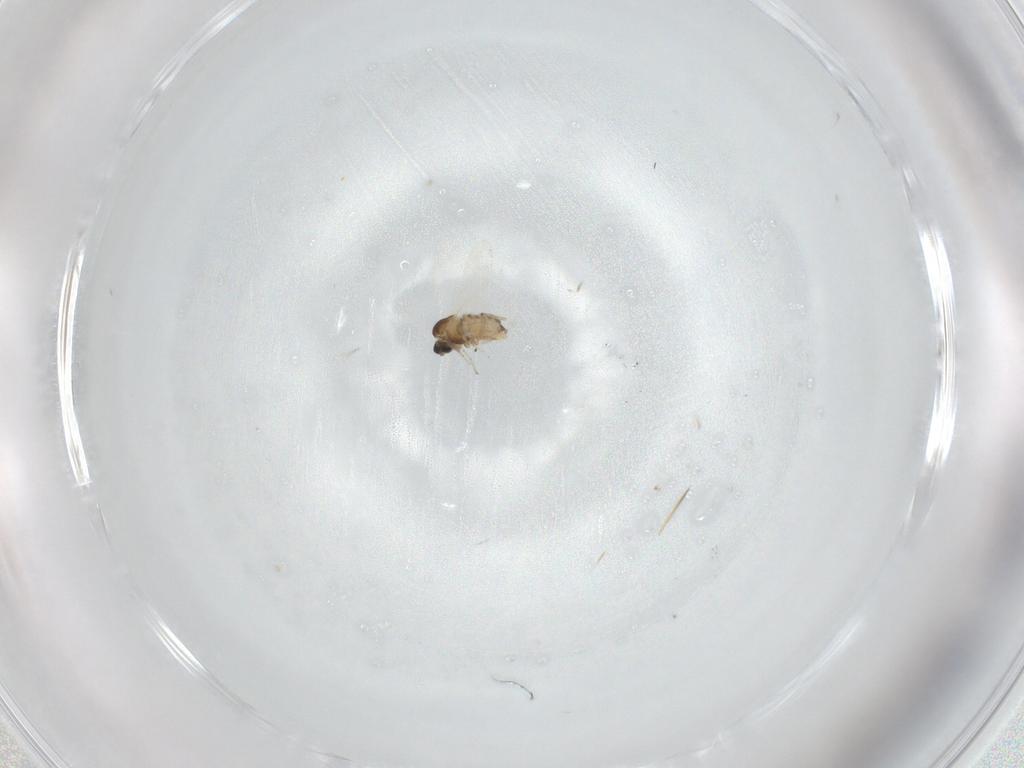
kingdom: Animalia
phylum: Arthropoda
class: Insecta
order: Diptera
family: Cecidomyiidae
